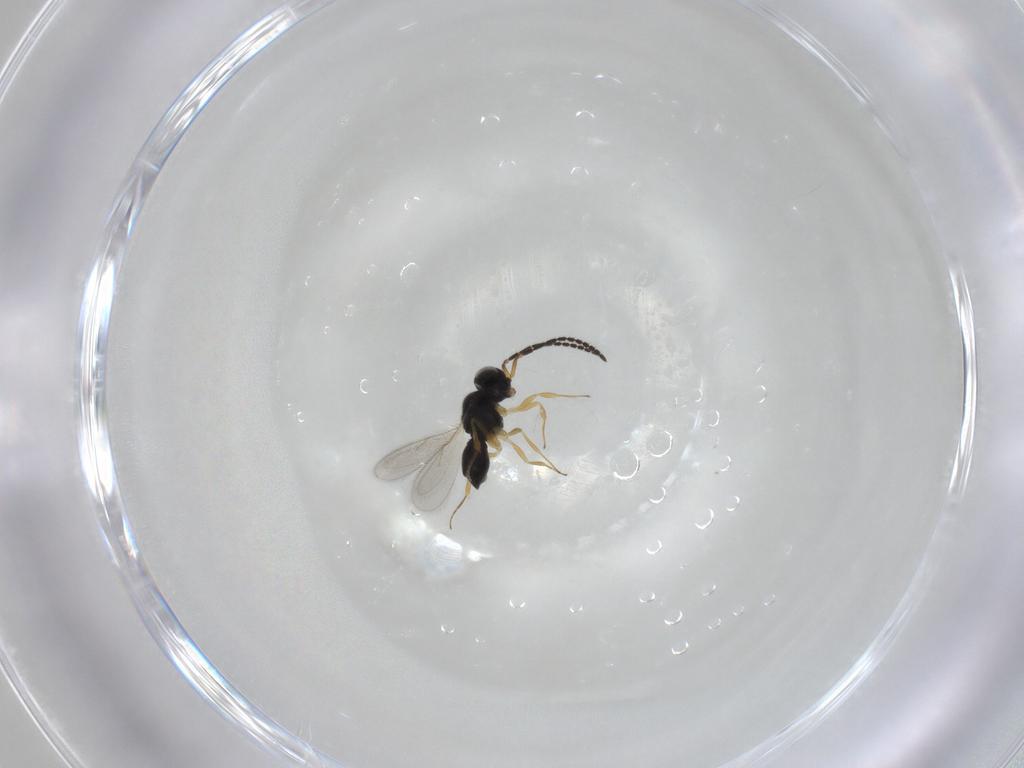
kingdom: Animalia
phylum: Arthropoda
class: Insecta
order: Hymenoptera
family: Scelionidae
